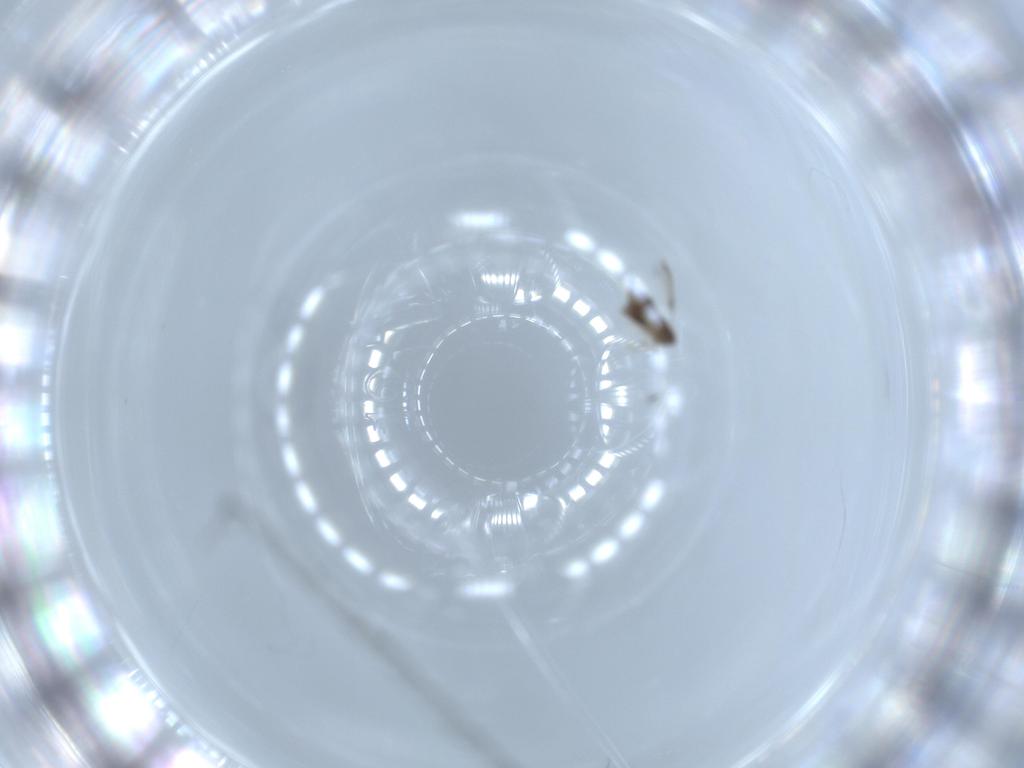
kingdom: Animalia
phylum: Arthropoda
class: Insecta
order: Hymenoptera
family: Signiphoridae
